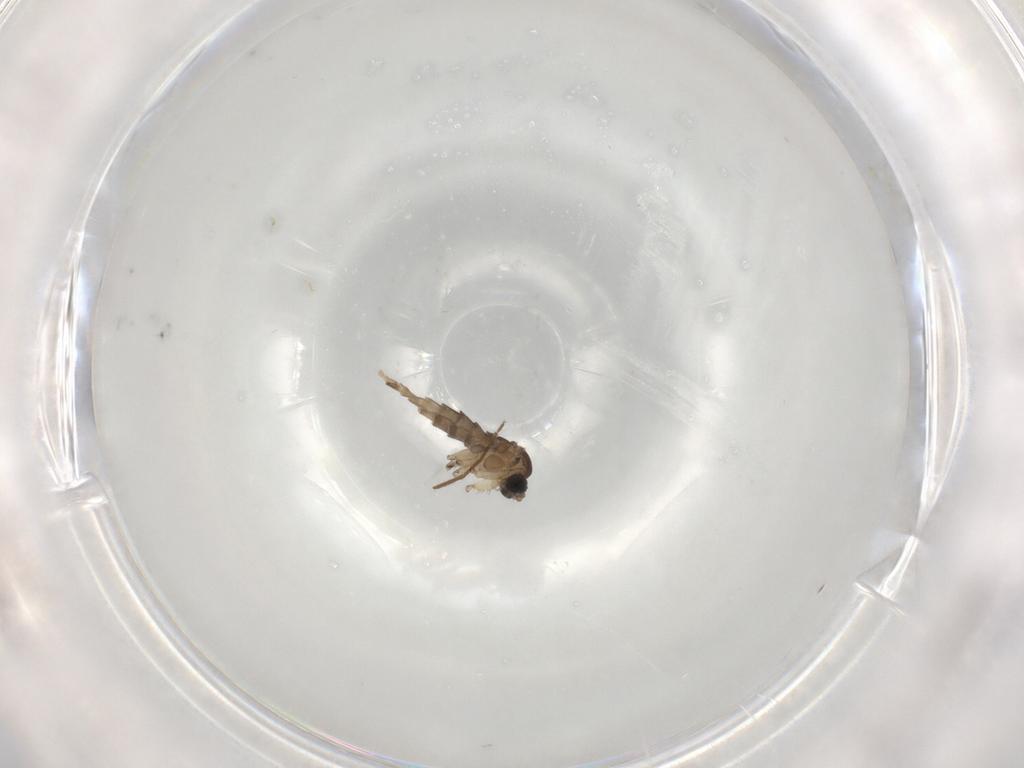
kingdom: Animalia
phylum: Arthropoda
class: Insecta
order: Diptera
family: Sciaridae
